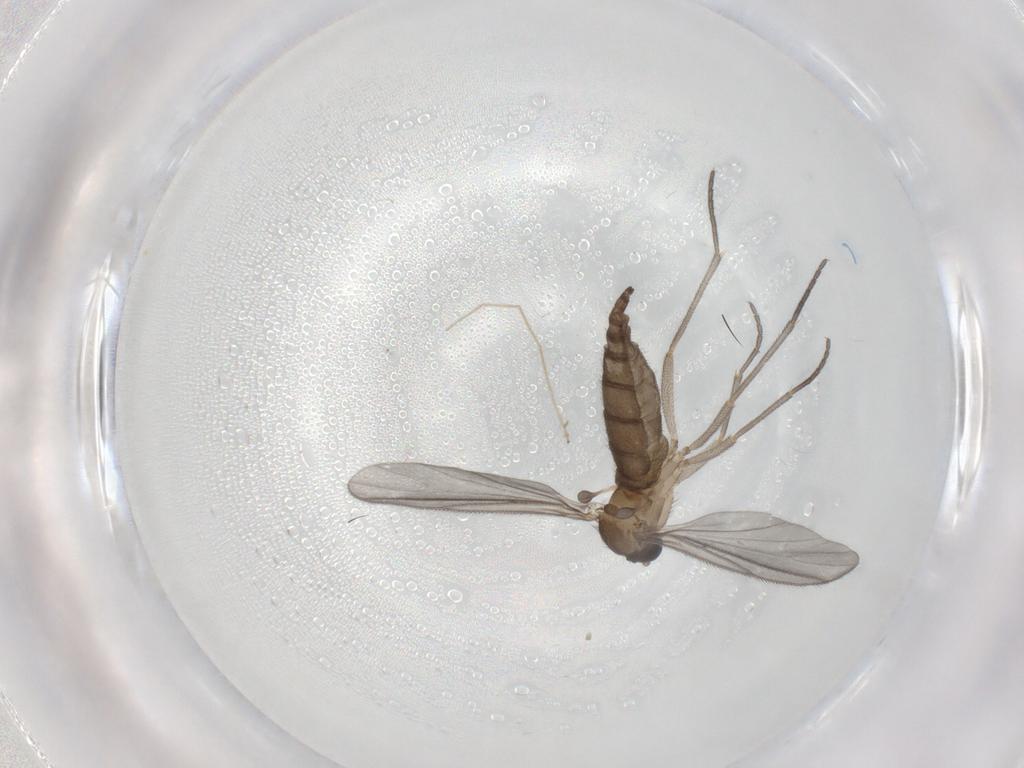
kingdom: Animalia
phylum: Arthropoda
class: Insecta
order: Diptera
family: Sciaridae
